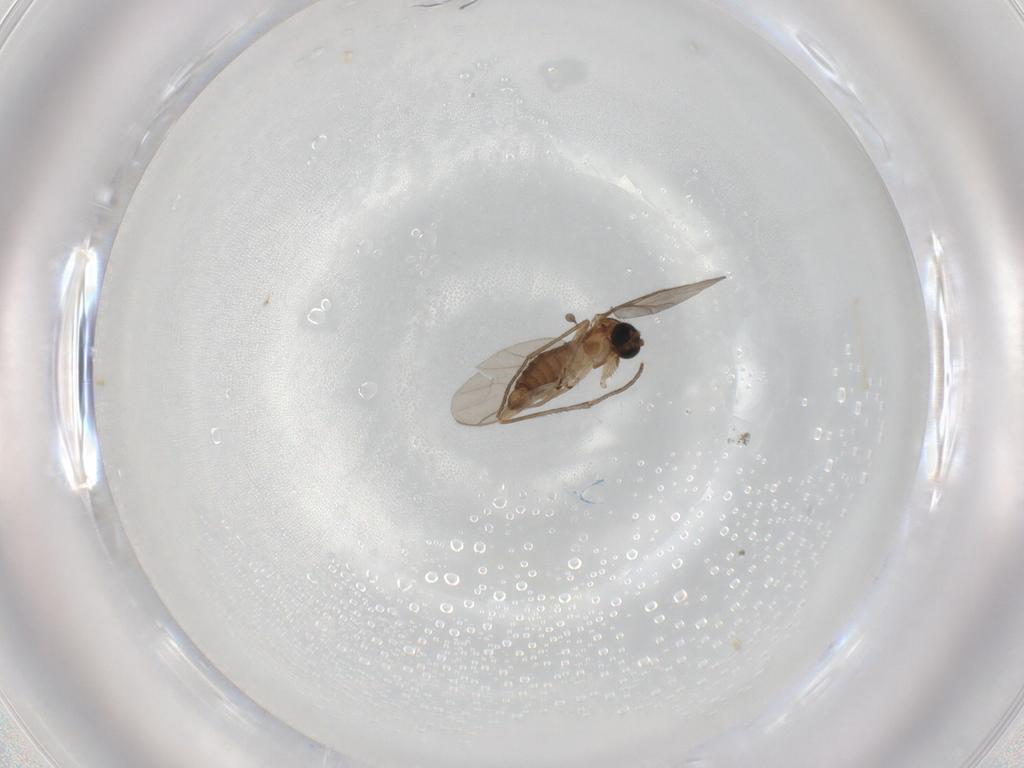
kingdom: Animalia
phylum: Arthropoda
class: Insecta
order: Diptera
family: Sciaridae
